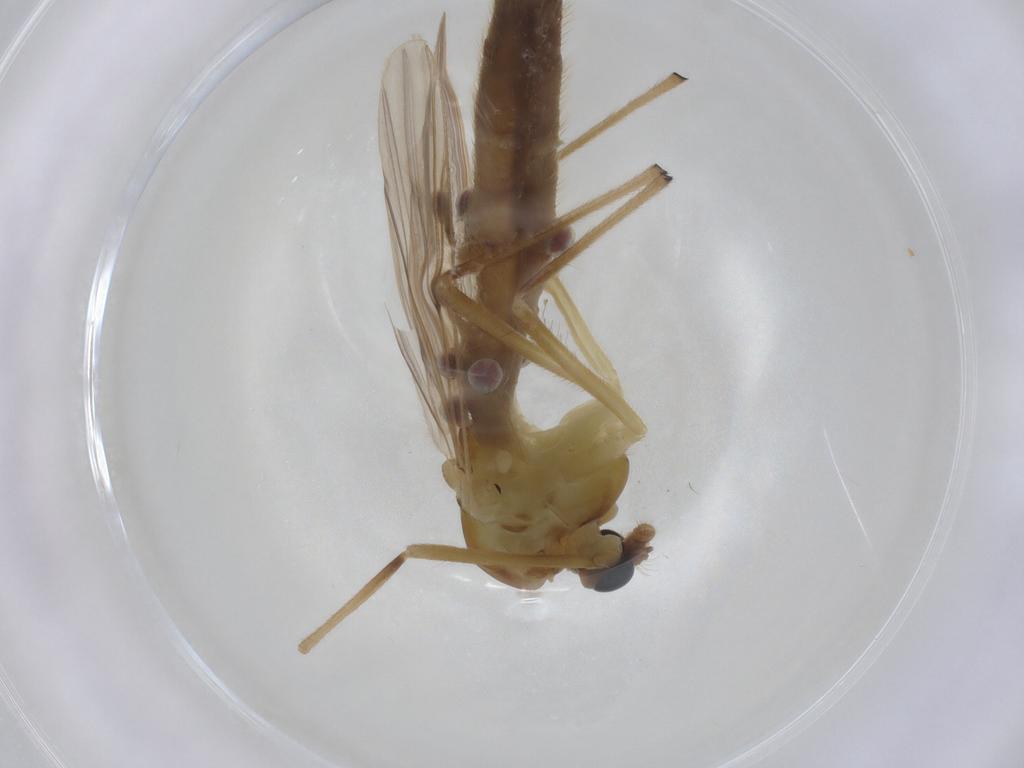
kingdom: Animalia
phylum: Arthropoda
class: Insecta
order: Diptera
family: Chironomidae
